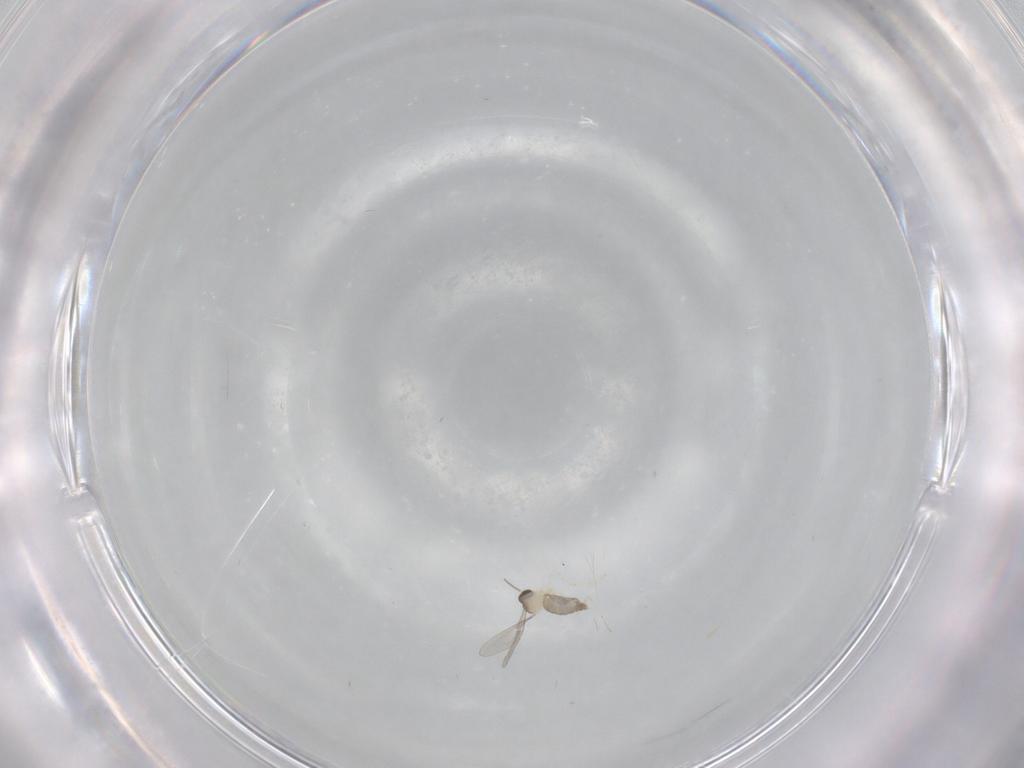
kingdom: Animalia
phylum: Arthropoda
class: Insecta
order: Diptera
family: Cecidomyiidae
